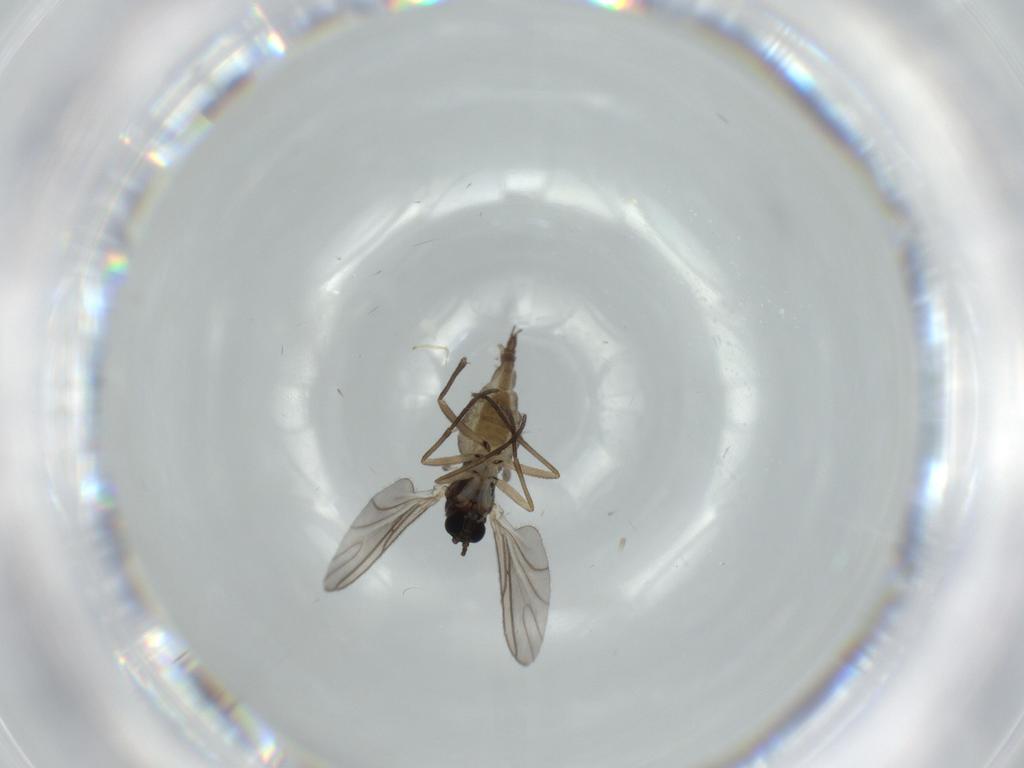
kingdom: Animalia
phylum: Arthropoda
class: Insecta
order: Diptera
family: Sciaridae
